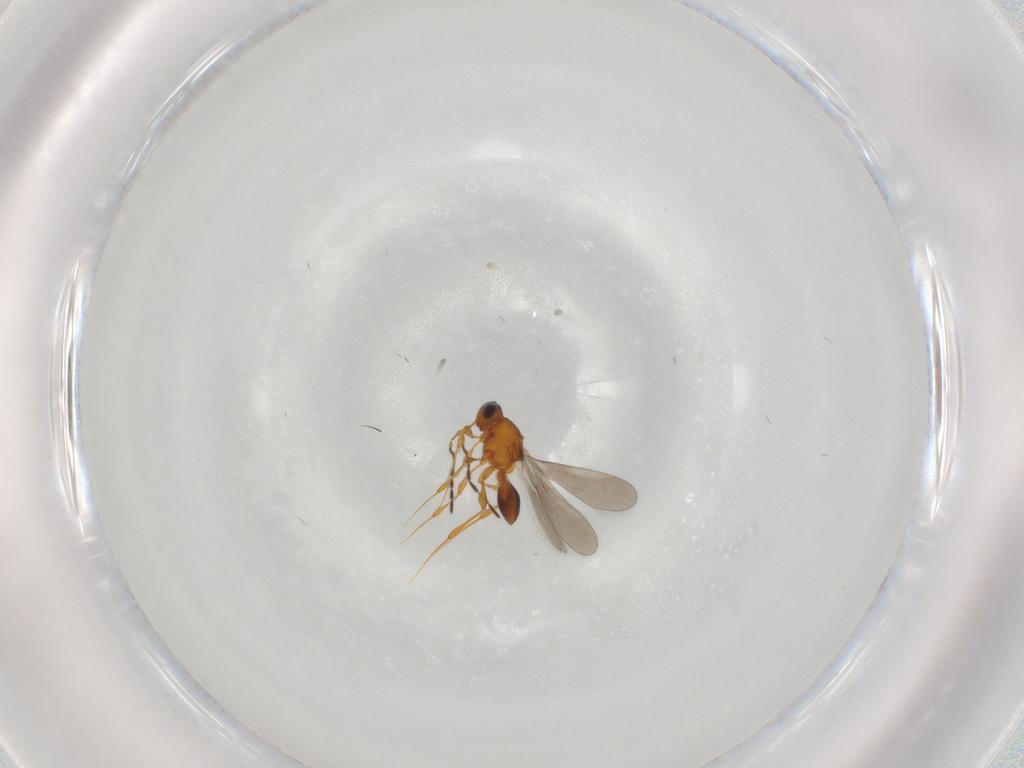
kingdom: Animalia
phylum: Arthropoda
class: Insecta
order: Hymenoptera
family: Platygastridae
